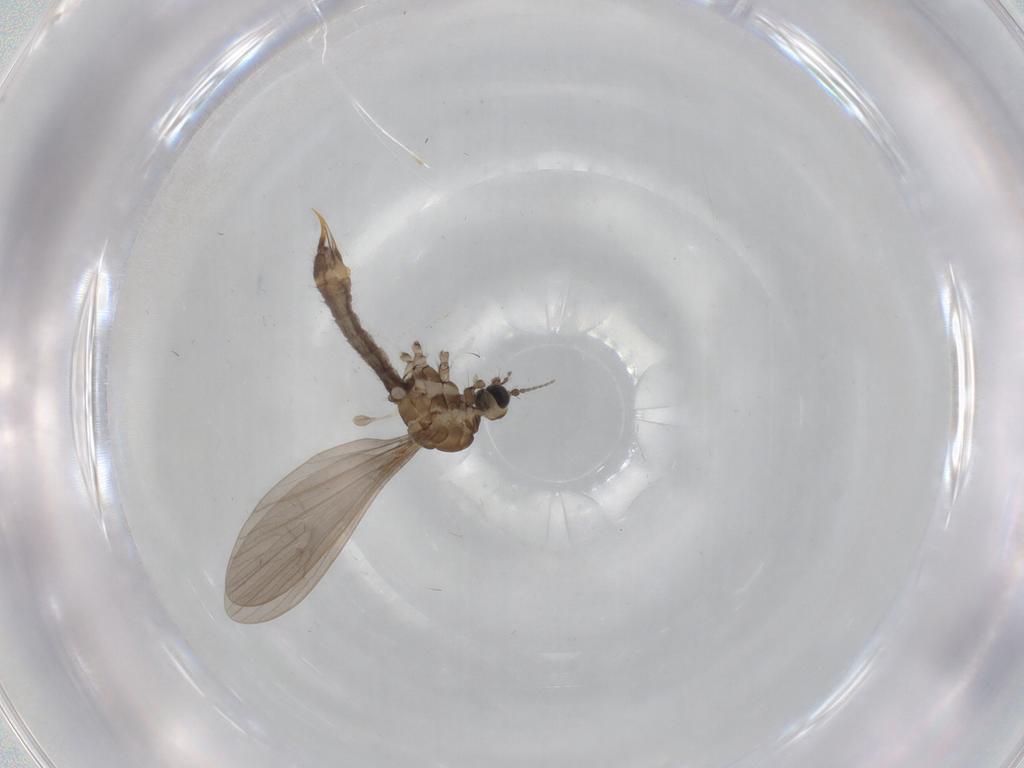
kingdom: Animalia
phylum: Arthropoda
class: Insecta
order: Diptera
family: Limoniidae
